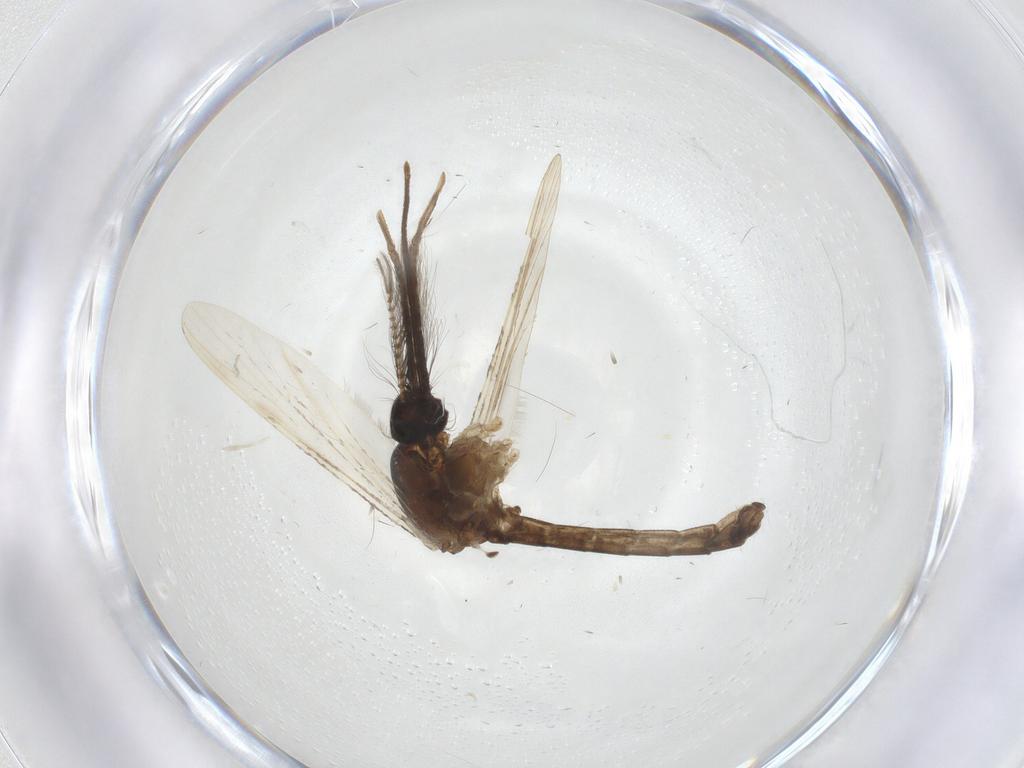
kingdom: Animalia
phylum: Arthropoda
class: Insecta
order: Diptera
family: Culicidae
